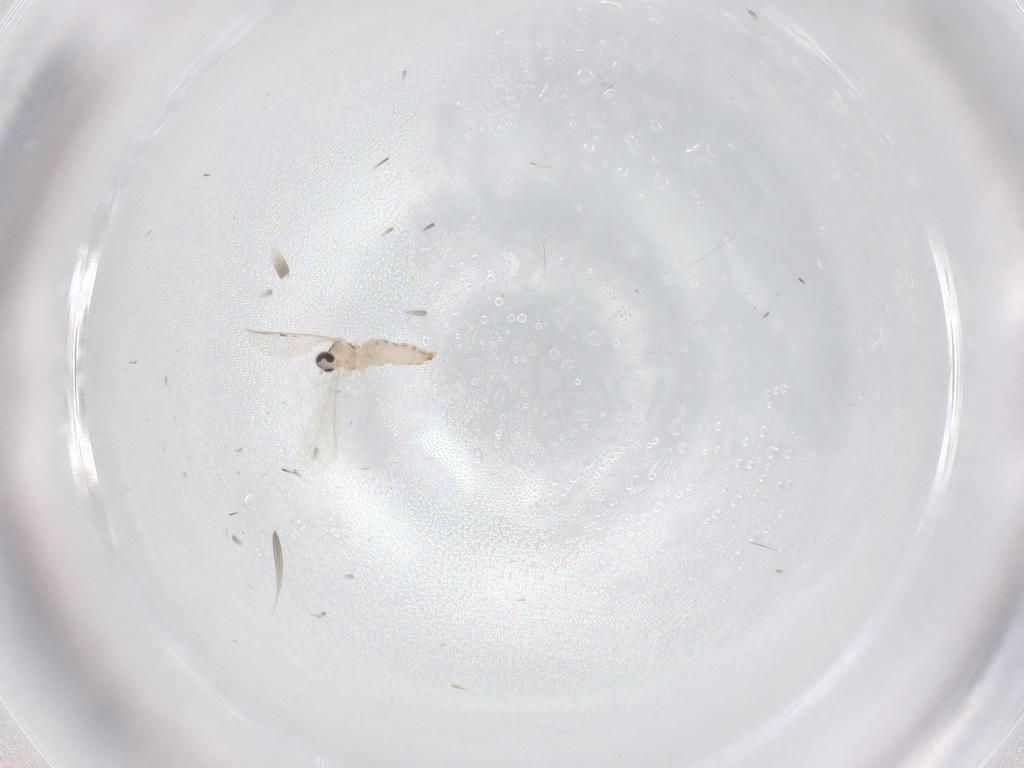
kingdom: Animalia
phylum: Arthropoda
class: Insecta
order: Diptera
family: Cecidomyiidae
